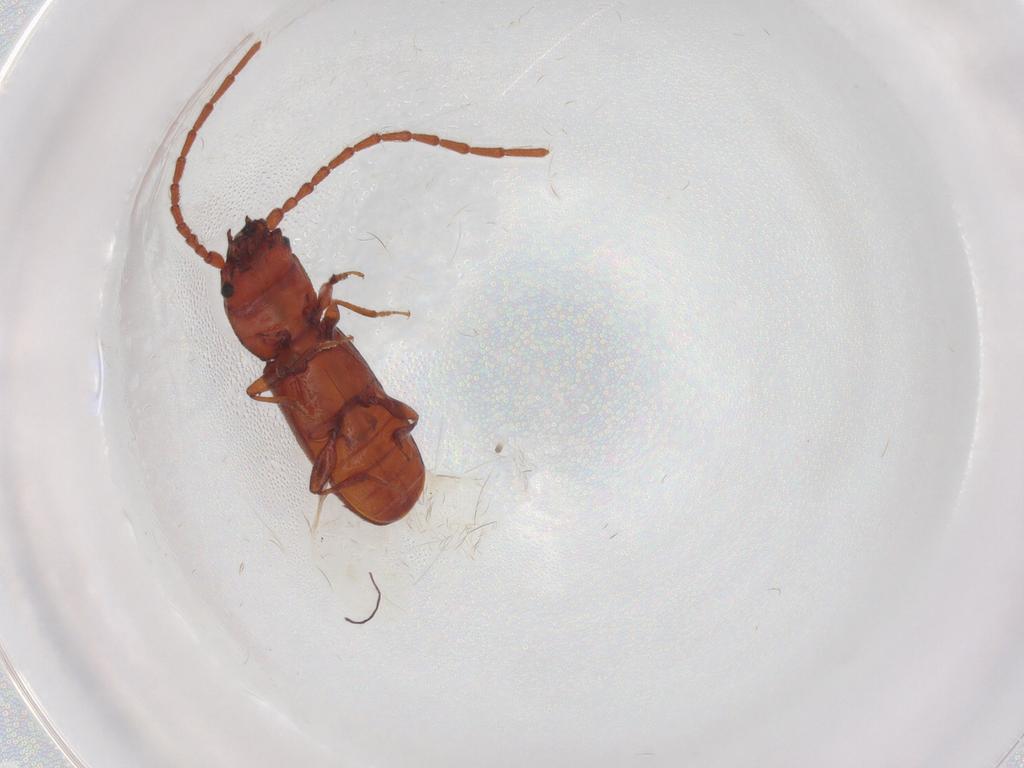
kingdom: Animalia
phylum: Arthropoda
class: Insecta
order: Coleoptera
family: Laemophloeidae
